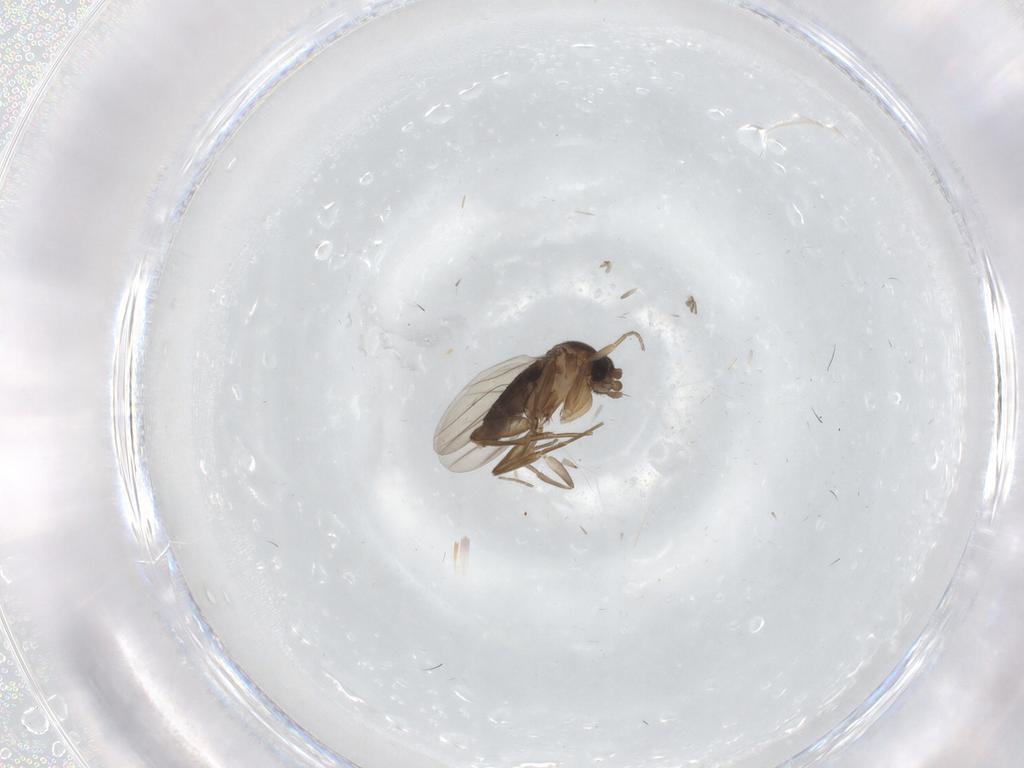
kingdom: Animalia
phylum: Arthropoda
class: Insecta
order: Diptera
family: Phoridae
